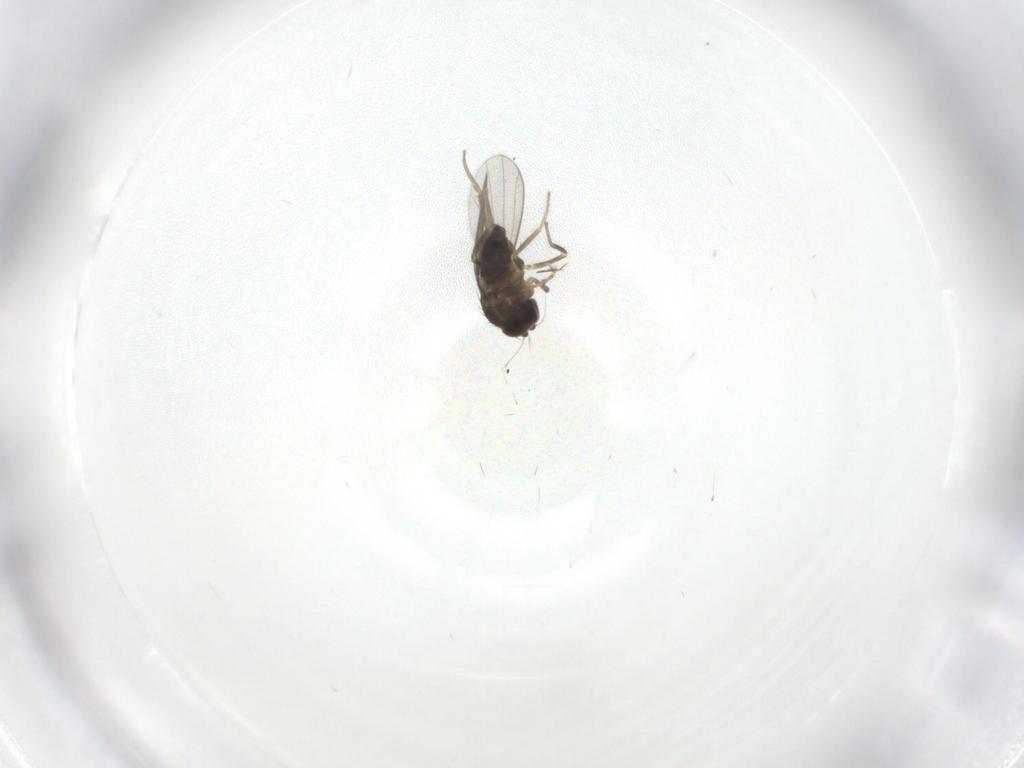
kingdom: Animalia
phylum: Arthropoda
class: Insecta
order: Diptera
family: Dolichopodidae
